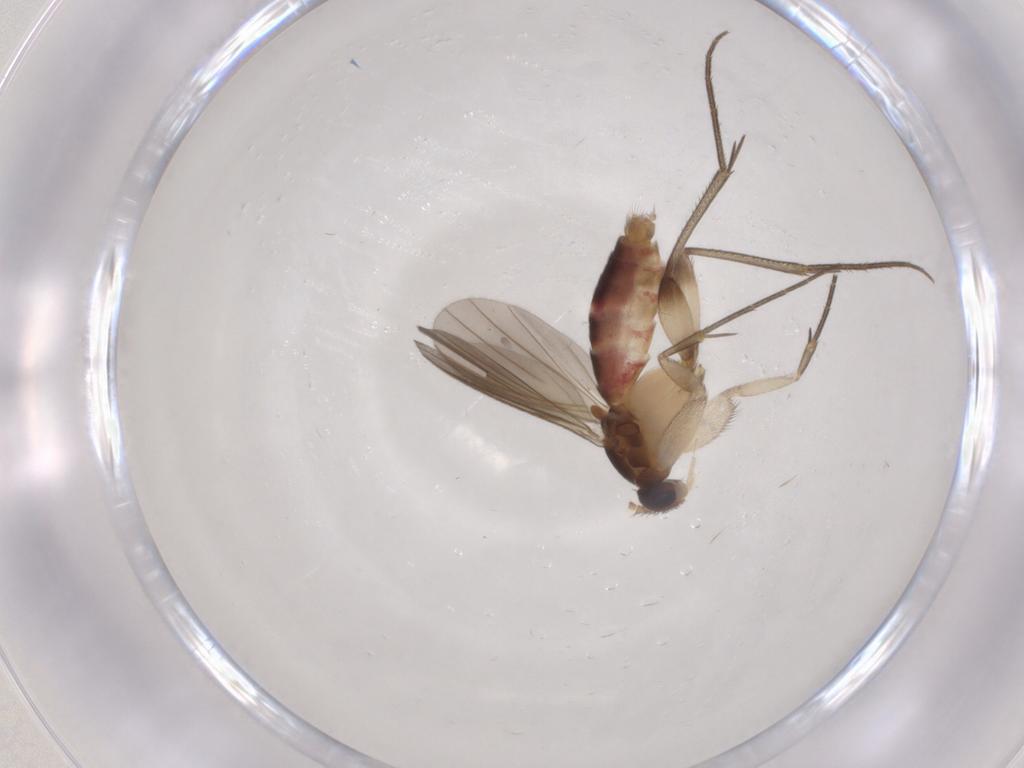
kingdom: Animalia
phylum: Arthropoda
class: Insecta
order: Diptera
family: Mycetophilidae
